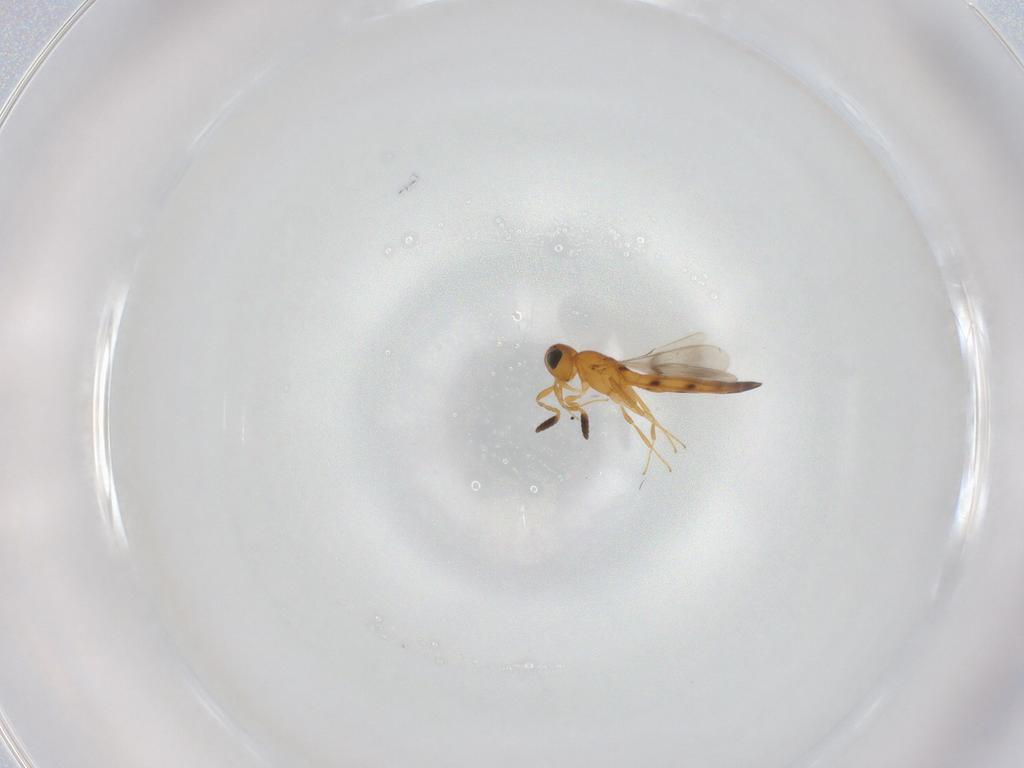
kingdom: Animalia
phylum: Arthropoda
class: Insecta
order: Hymenoptera
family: Scelionidae
